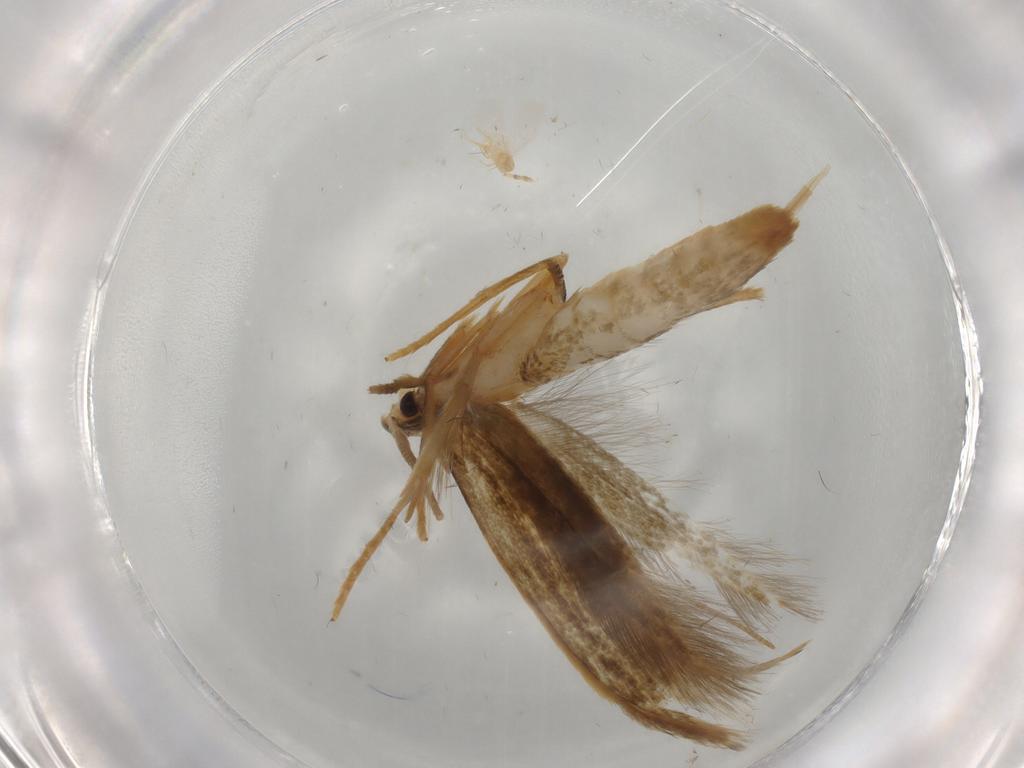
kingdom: Animalia
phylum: Arthropoda
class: Insecta
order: Lepidoptera
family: Tineidae
